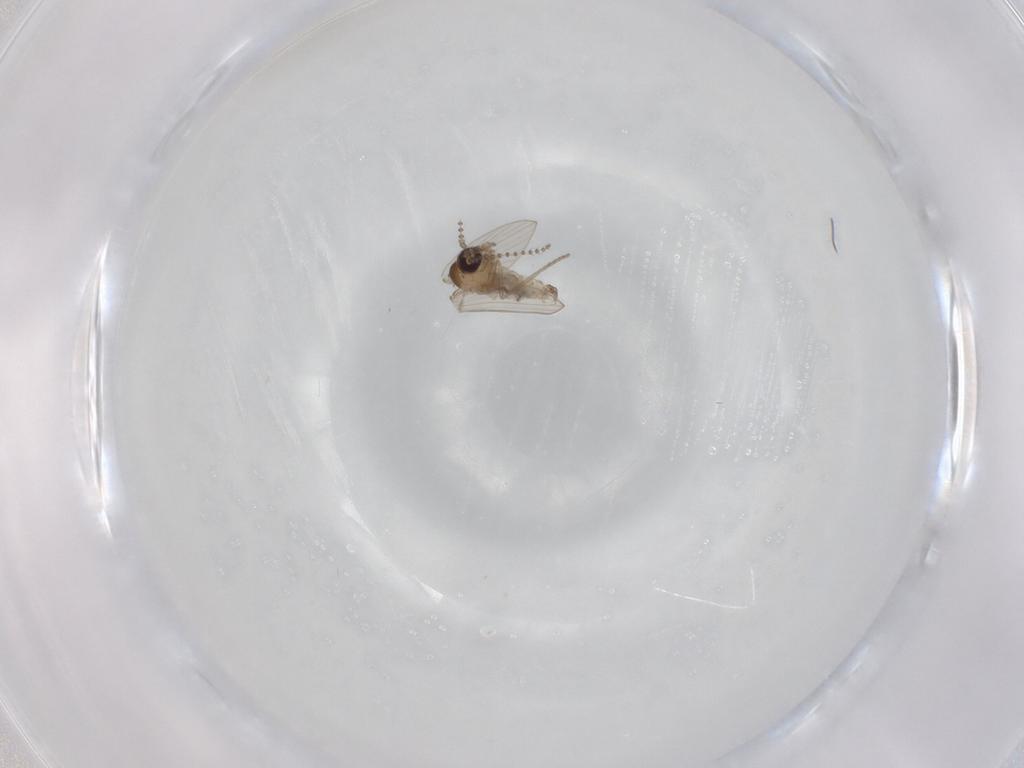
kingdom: Animalia
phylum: Arthropoda
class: Insecta
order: Diptera
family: Psychodidae
